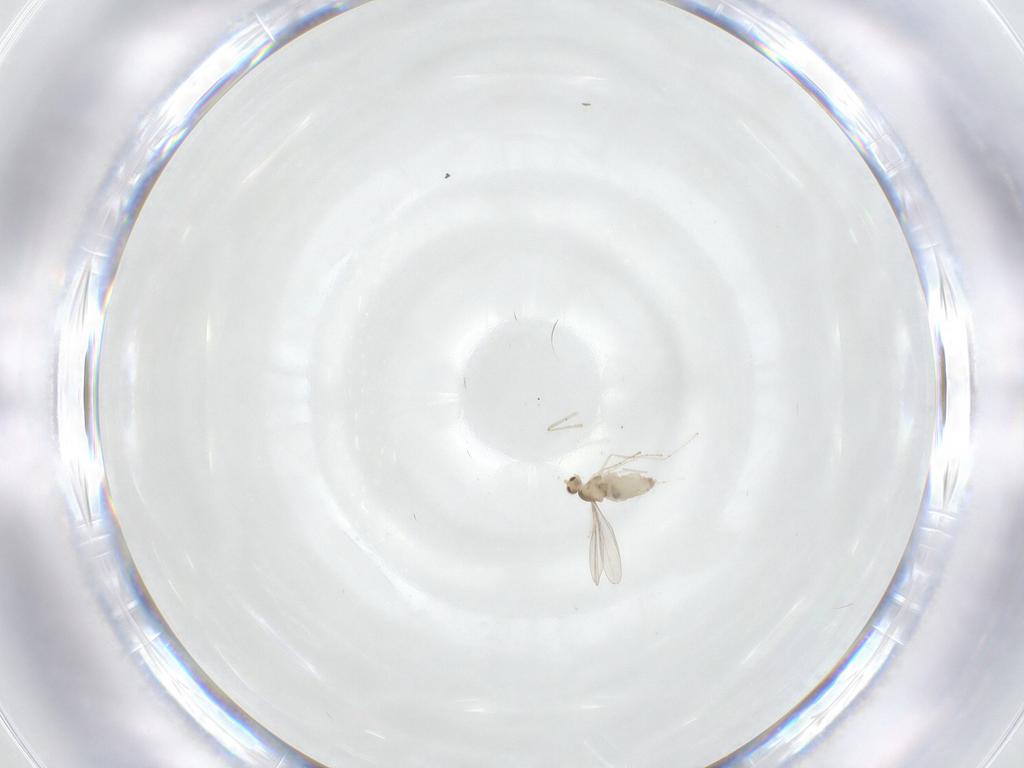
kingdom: Animalia
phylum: Arthropoda
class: Insecta
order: Diptera
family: Cecidomyiidae
